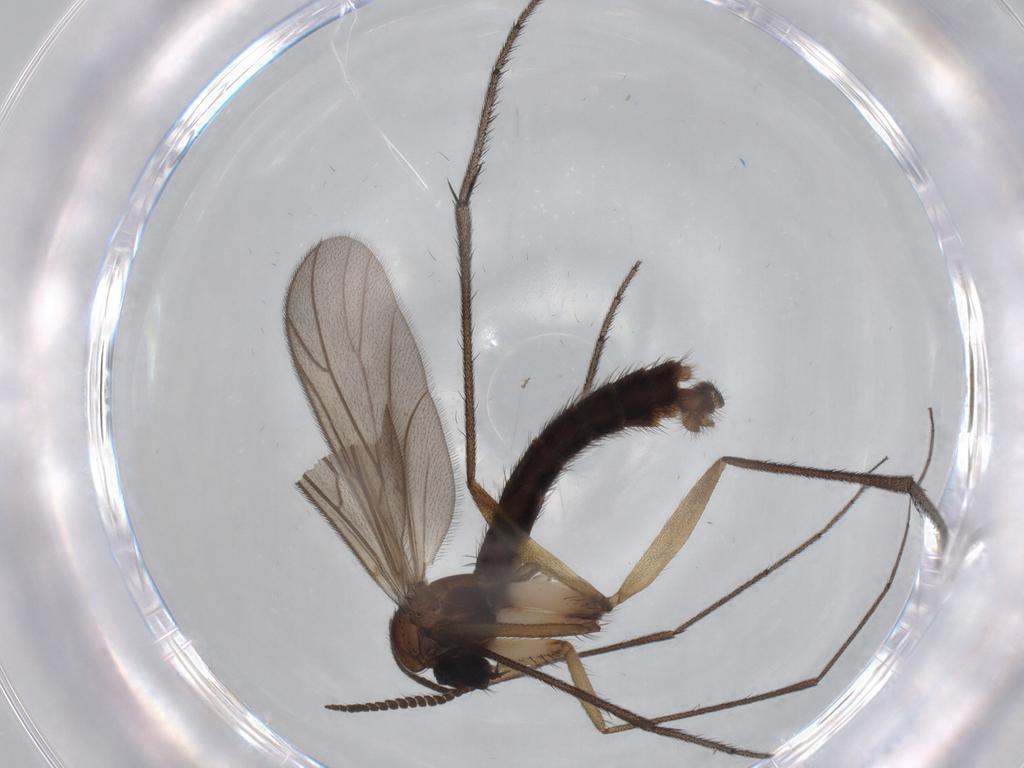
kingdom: Animalia
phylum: Arthropoda
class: Insecta
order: Diptera
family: Ditomyiidae
